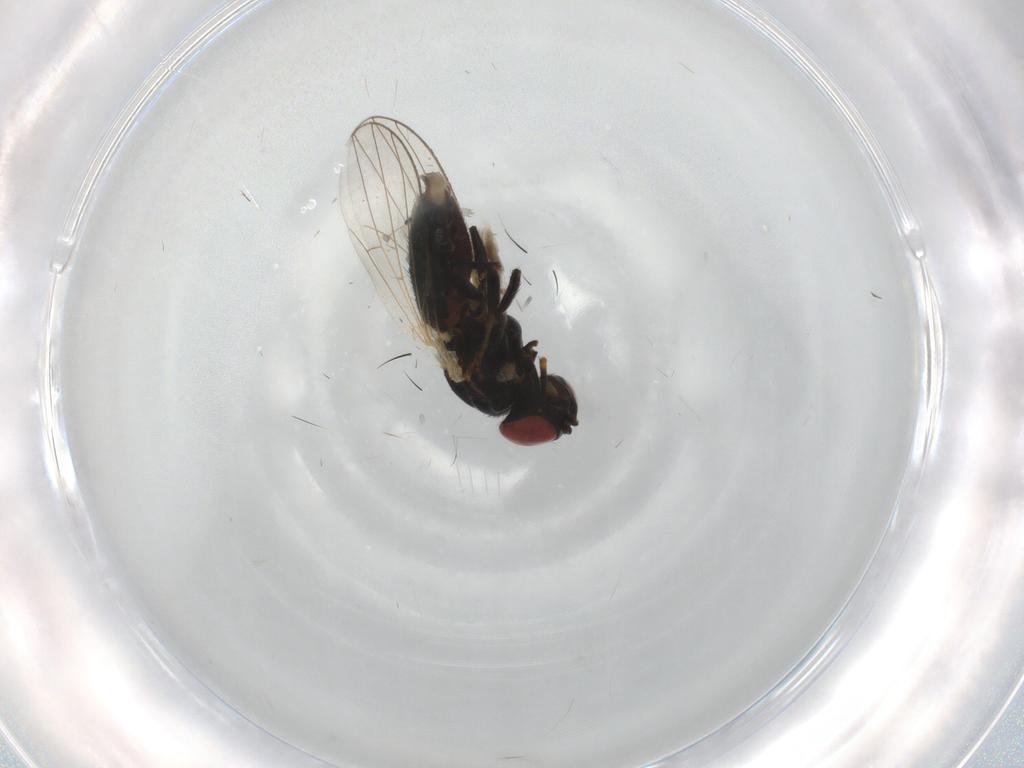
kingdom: Animalia
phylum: Arthropoda
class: Insecta
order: Diptera
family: Chamaemyiidae
